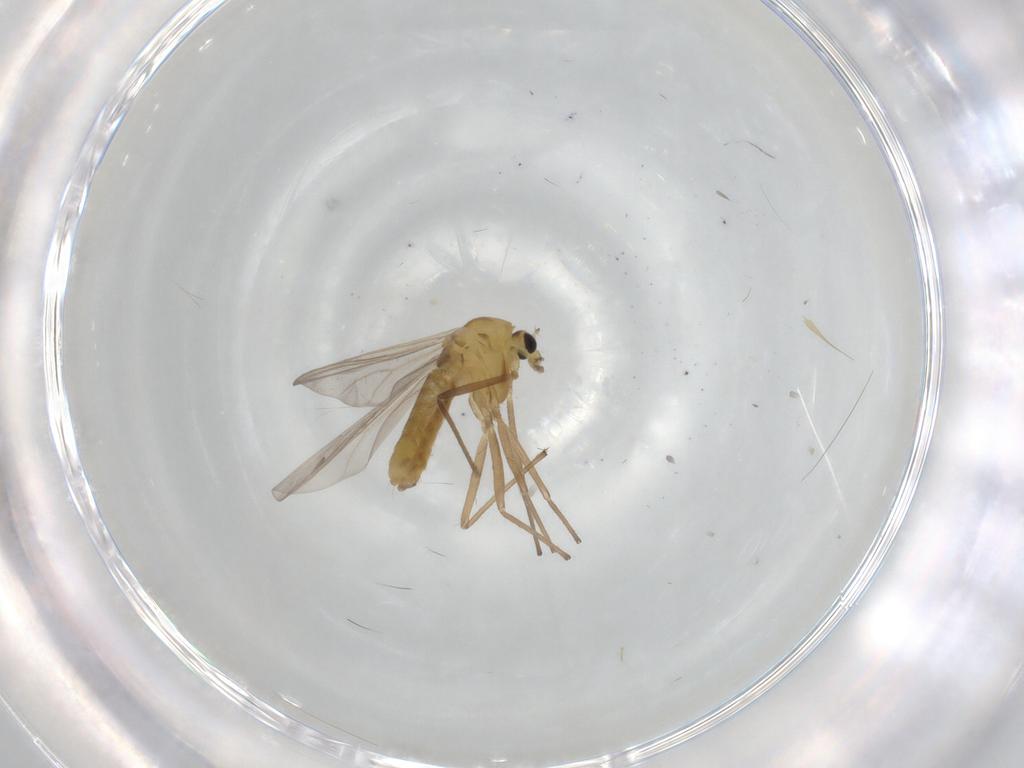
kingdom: Animalia
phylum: Arthropoda
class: Insecta
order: Diptera
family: Chironomidae
